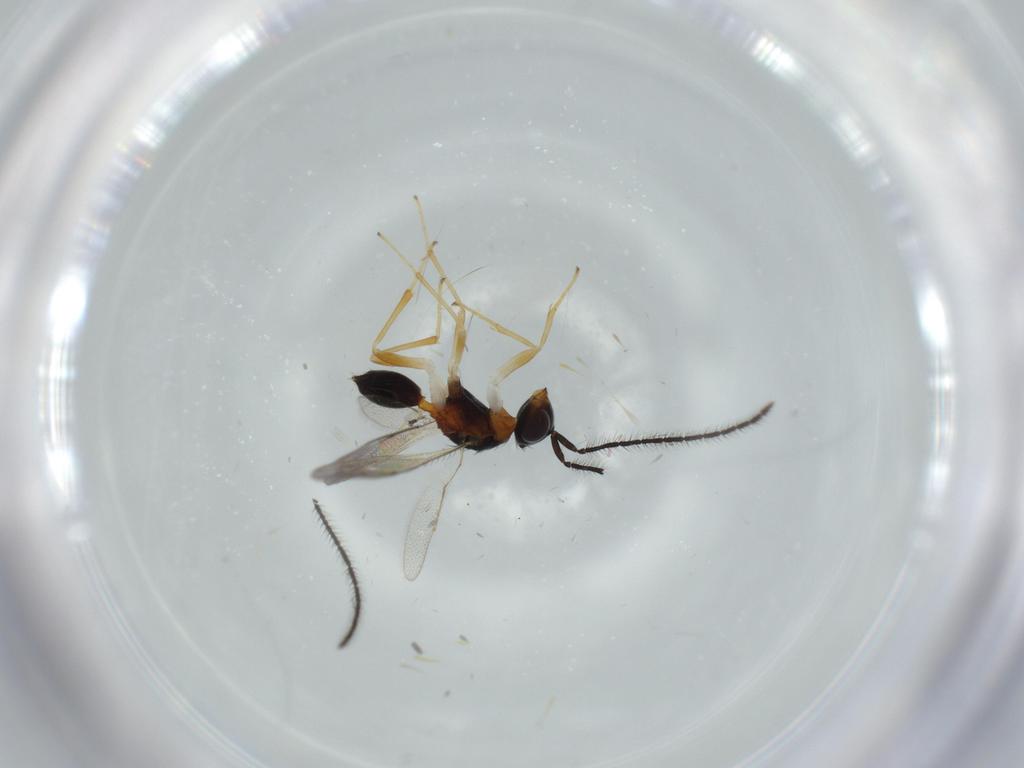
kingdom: Animalia
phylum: Arthropoda
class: Insecta
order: Hymenoptera
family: Diparidae
